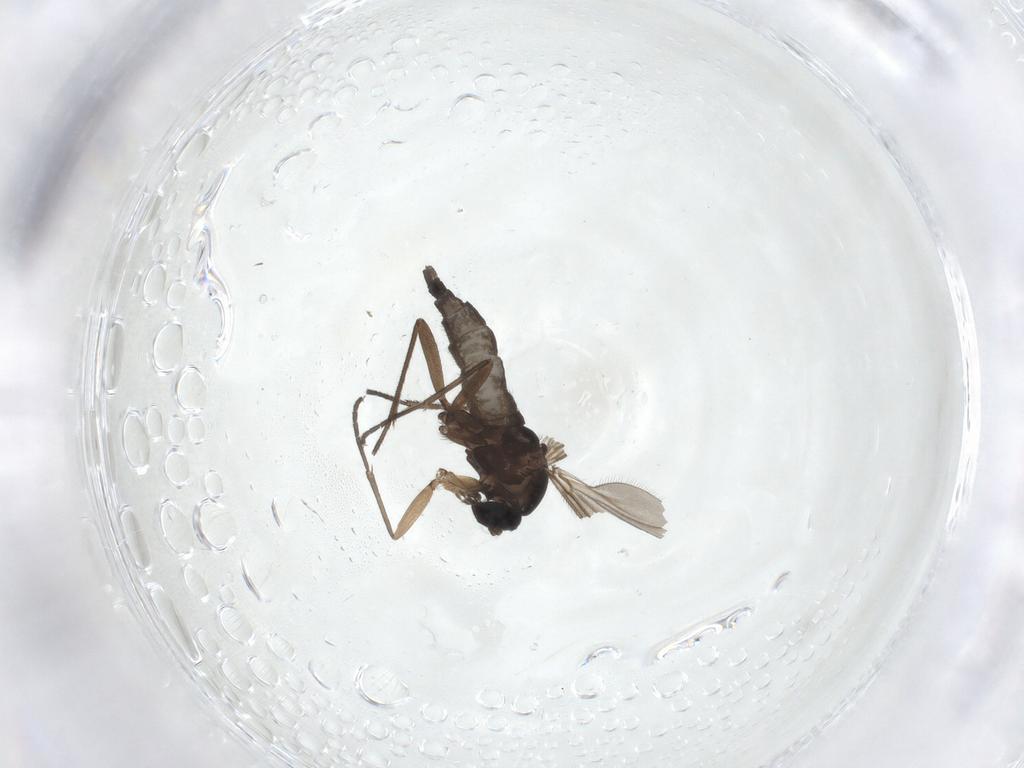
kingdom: Animalia
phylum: Arthropoda
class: Insecta
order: Diptera
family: Sciaridae
